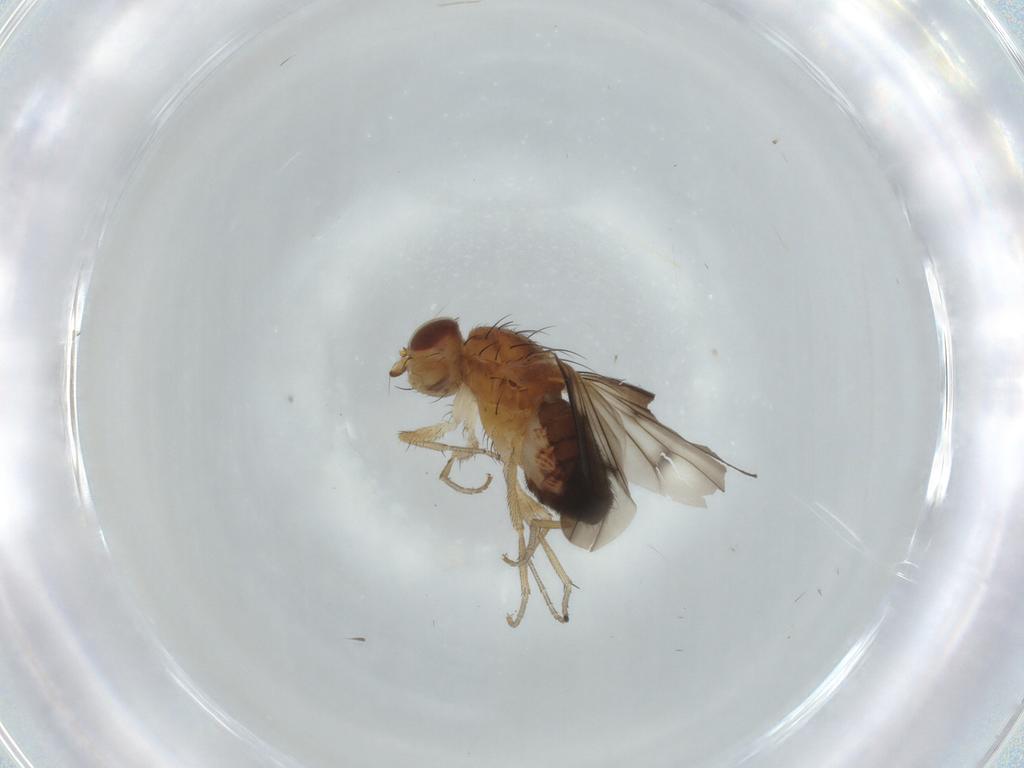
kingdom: Animalia
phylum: Arthropoda
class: Insecta
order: Diptera
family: Heleomyzidae
